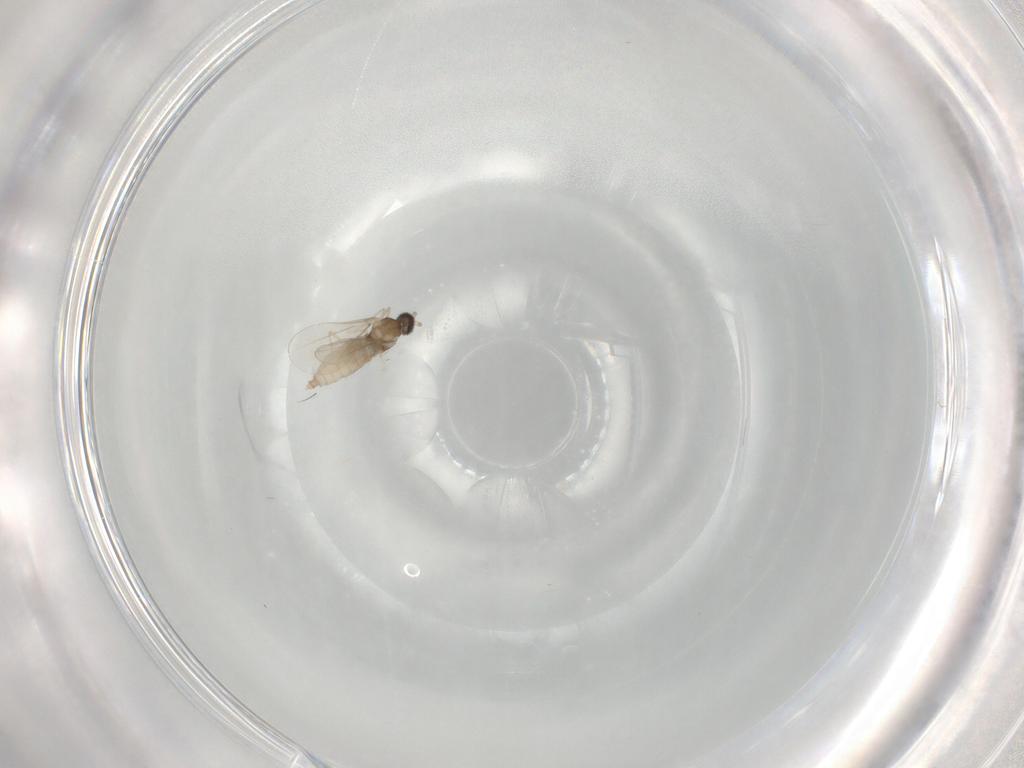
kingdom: Animalia
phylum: Arthropoda
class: Insecta
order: Diptera
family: Cecidomyiidae
